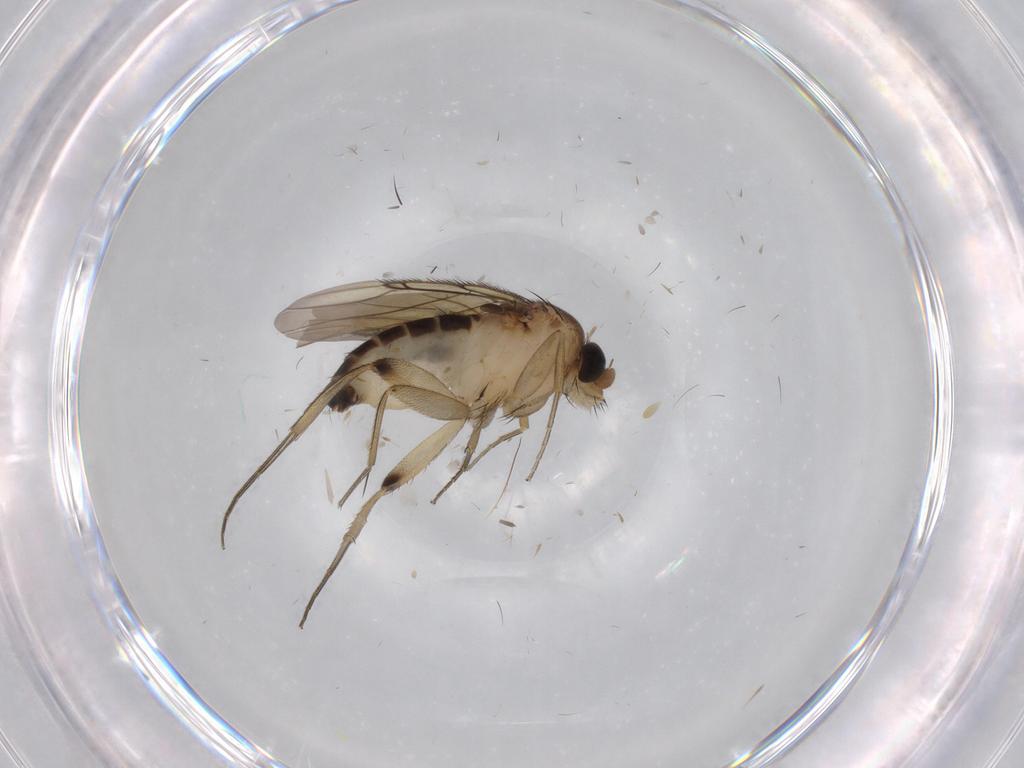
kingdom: Animalia
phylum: Arthropoda
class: Insecta
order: Diptera
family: Phoridae
